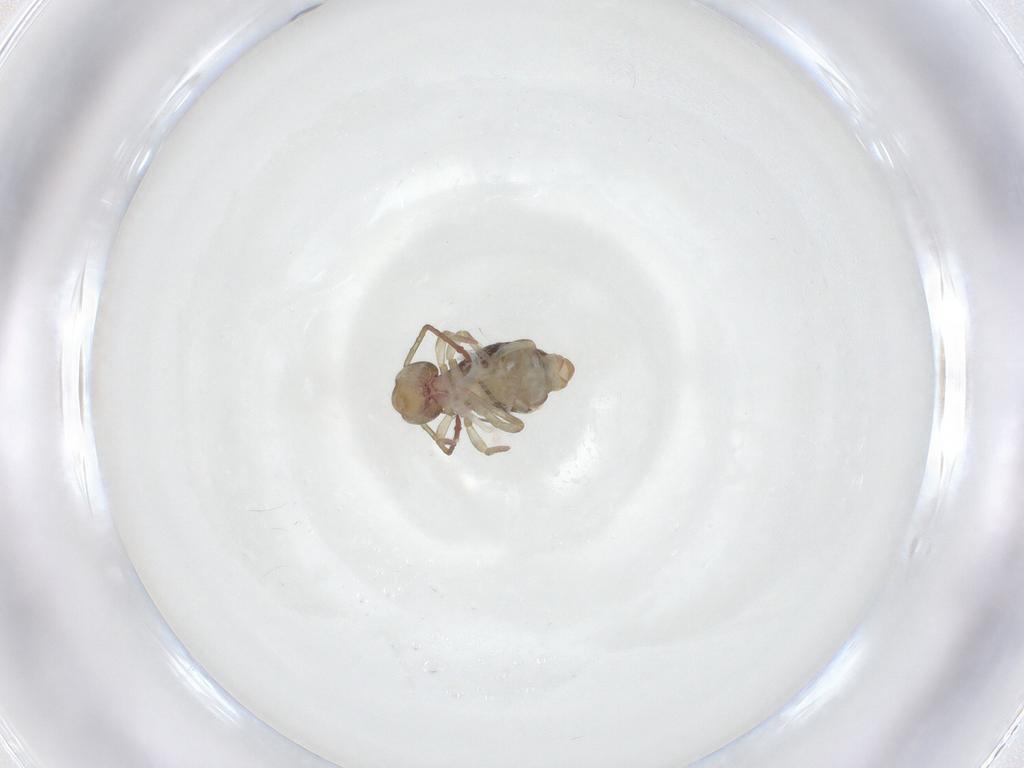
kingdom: Animalia
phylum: Arthropoda
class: Collembola
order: Symphypleona
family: Dicyrtomidae
